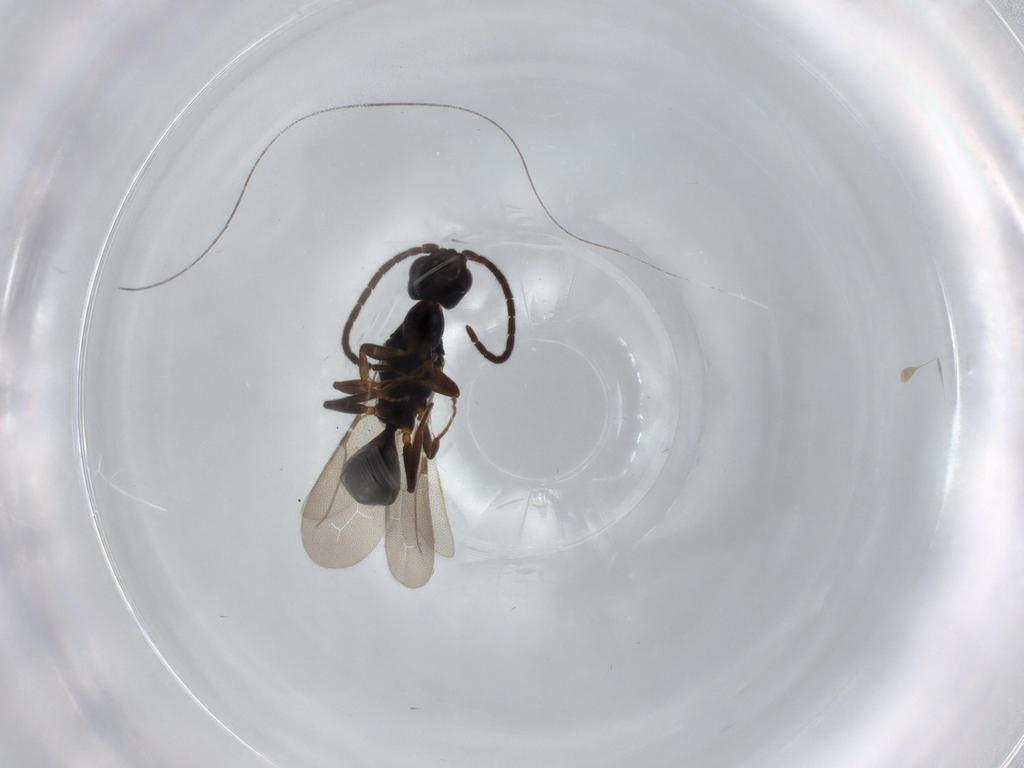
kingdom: Animalia
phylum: Arthropoda
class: Insecta
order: Hymenoptera
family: Bethylidae
